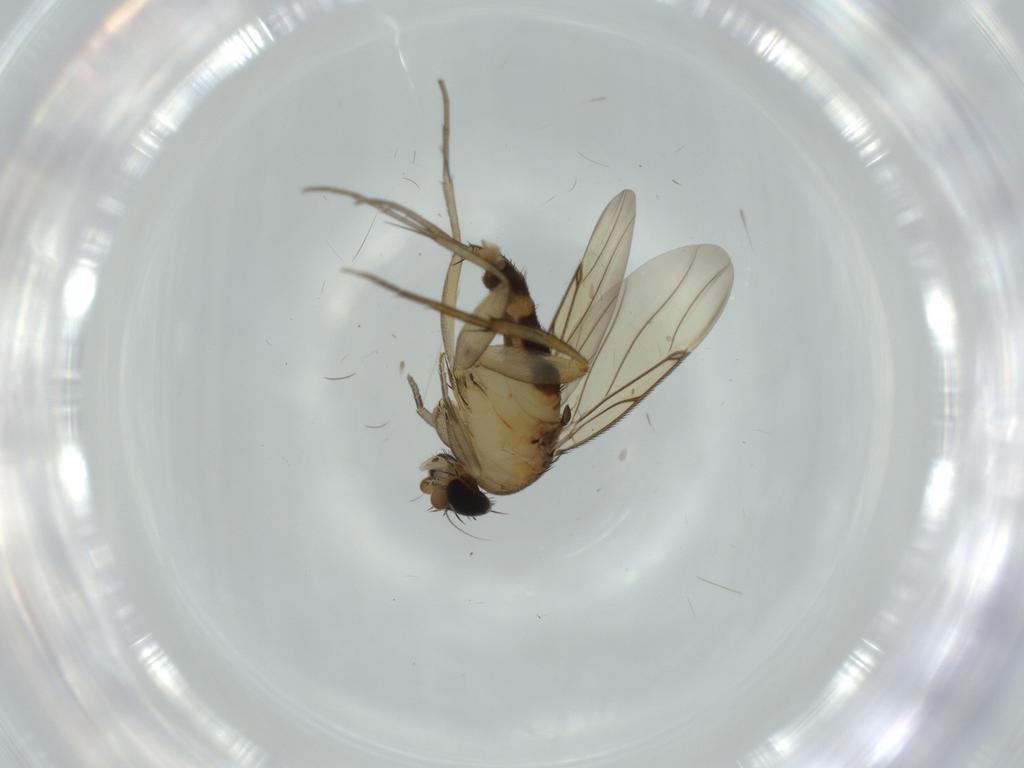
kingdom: Animalia
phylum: Arthropoda
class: Insecta
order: Diptera
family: Phoridae
